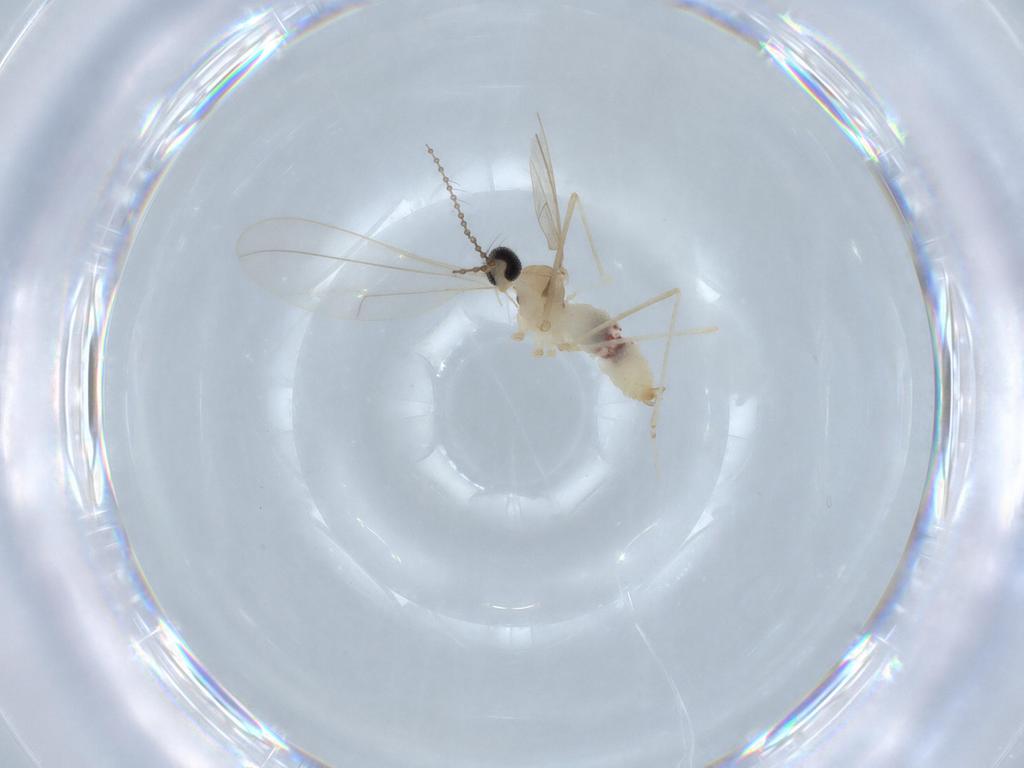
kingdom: Animalia
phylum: Arthropoda
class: Insecta
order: Diptera
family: Cecidomyiidae
